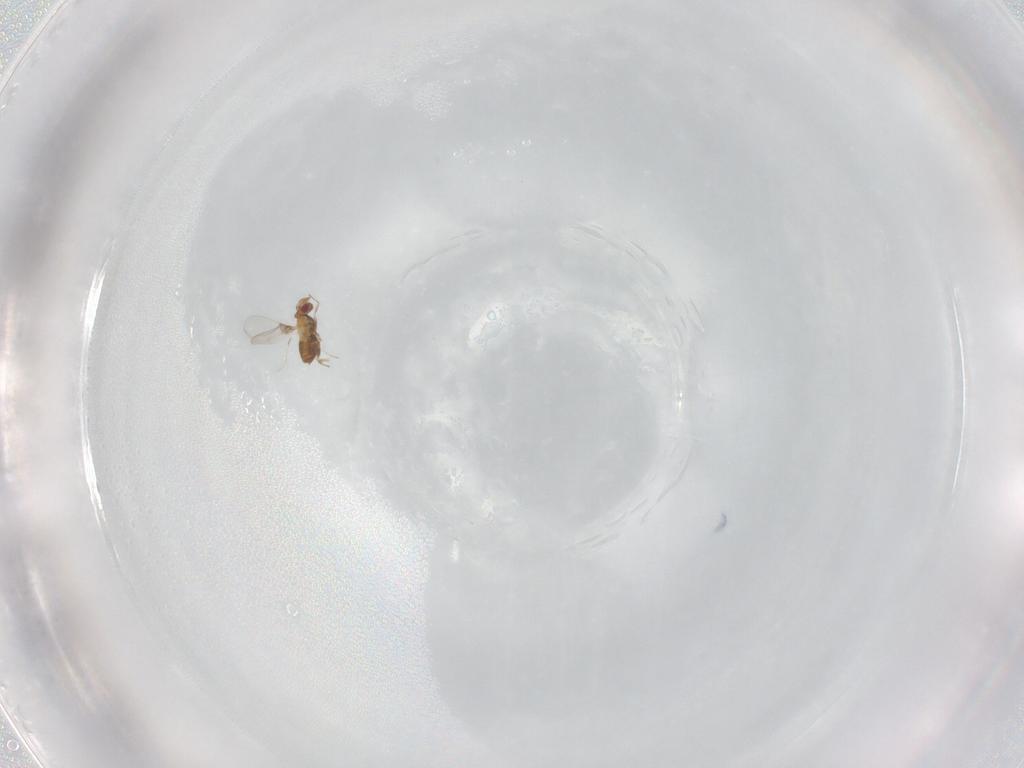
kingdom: Animalia
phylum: Arthropoda
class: Insecta
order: Hymenoptera
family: Trichogrammatidae
